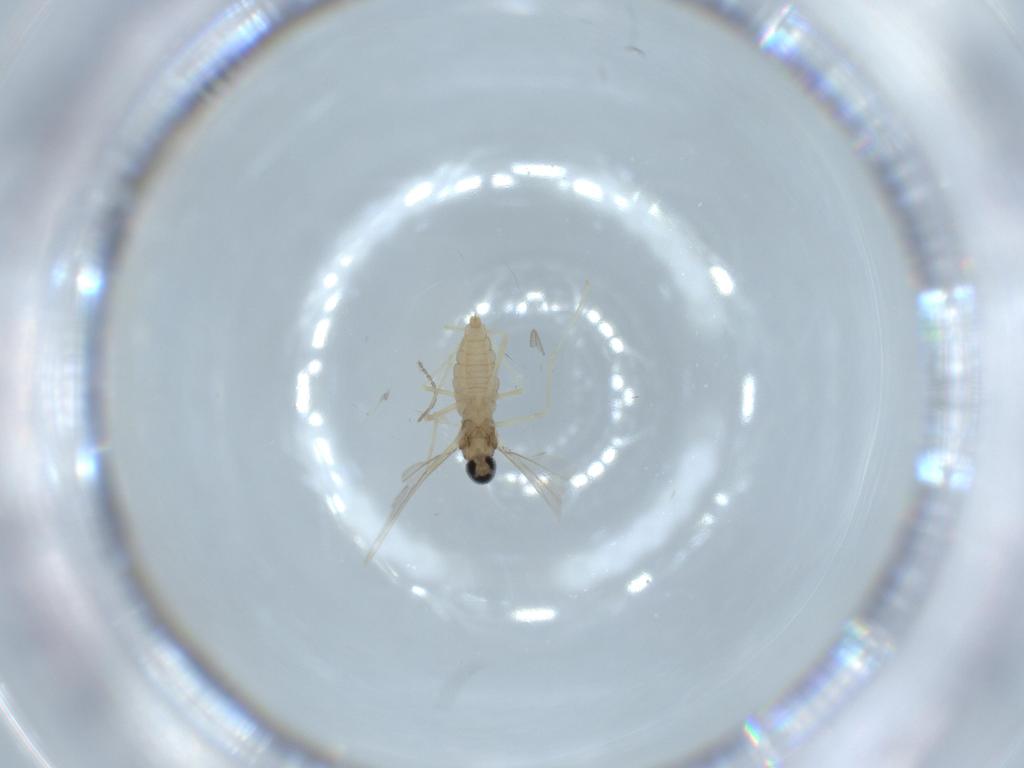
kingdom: Animalia
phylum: Arthropoda
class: Insecta
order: Diptera
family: Cecidomyiidae
